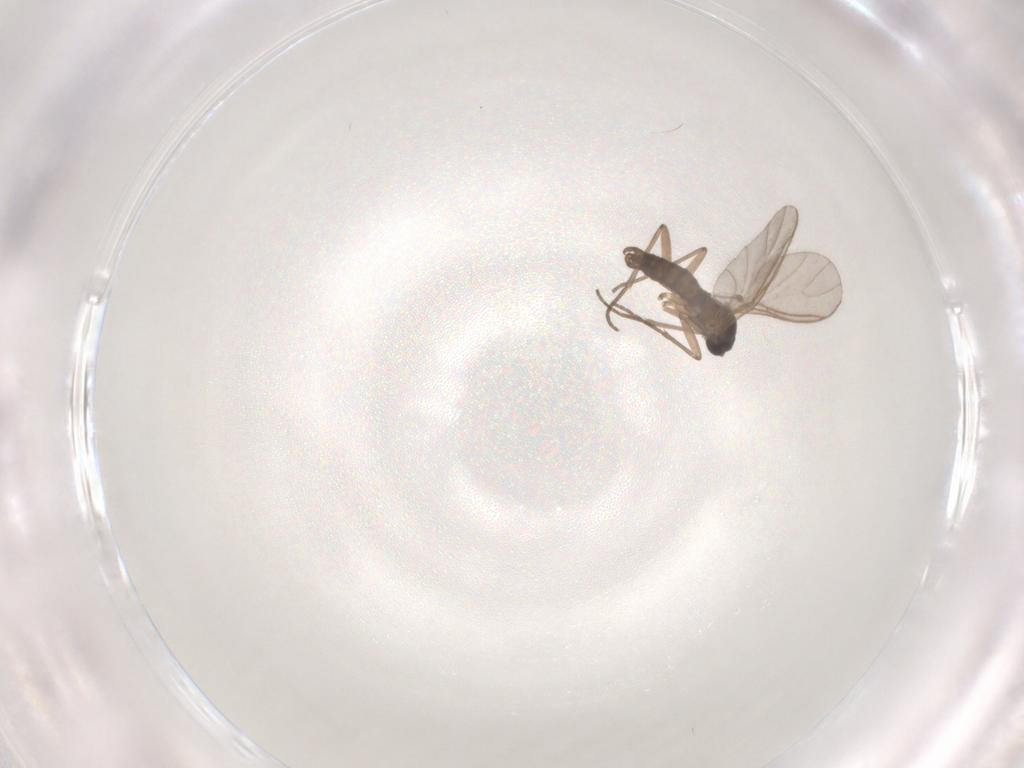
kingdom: Animalia
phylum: Arthropoda
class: Insecta
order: Diptera
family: Sciaridae
